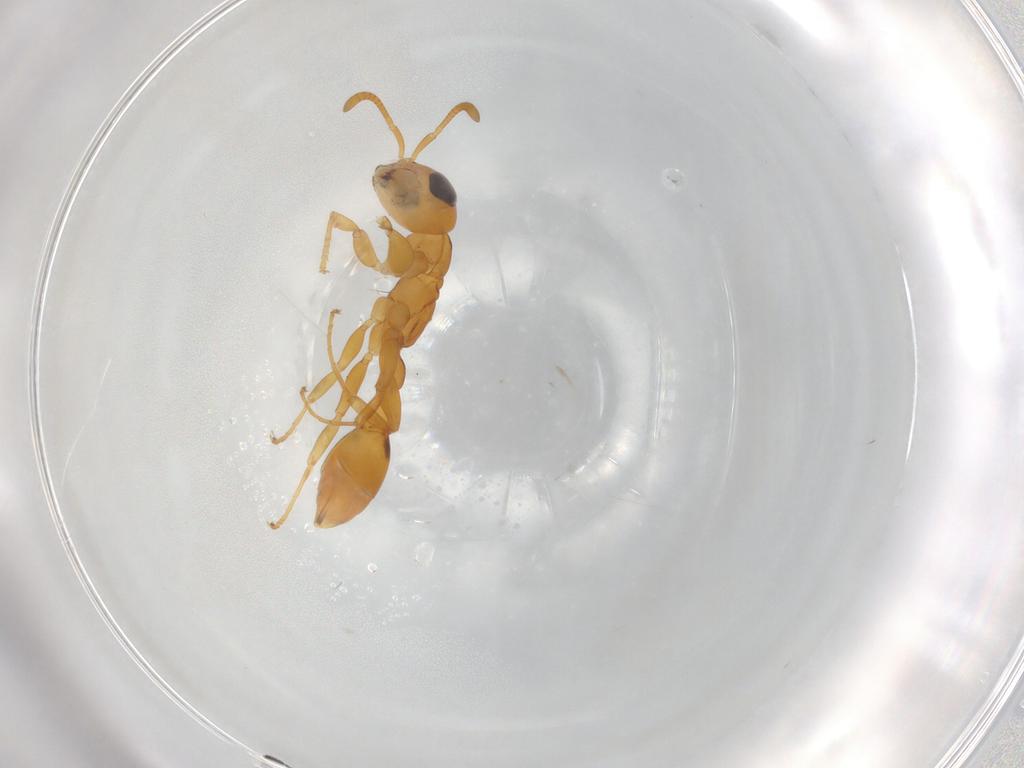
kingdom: Animalia
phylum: Arthropoda
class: Insecta
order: Hymenoptera
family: Formicidae
